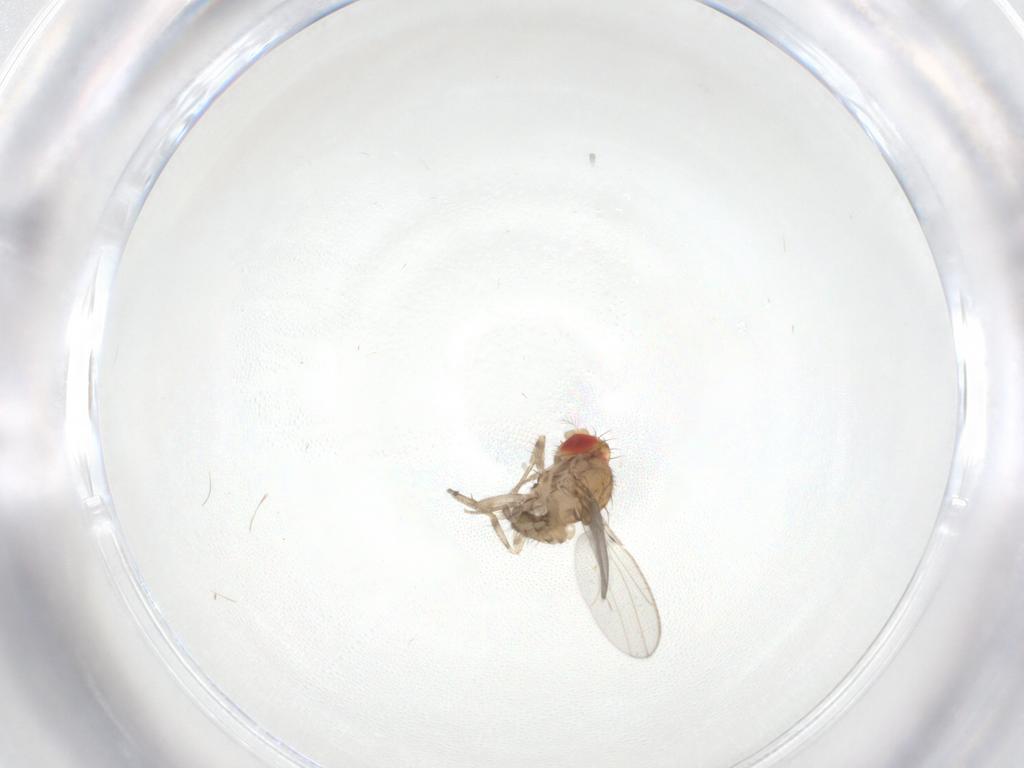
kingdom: Animalia
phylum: Arthropoda
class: Insecta
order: Diptera
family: Drosophilidae
